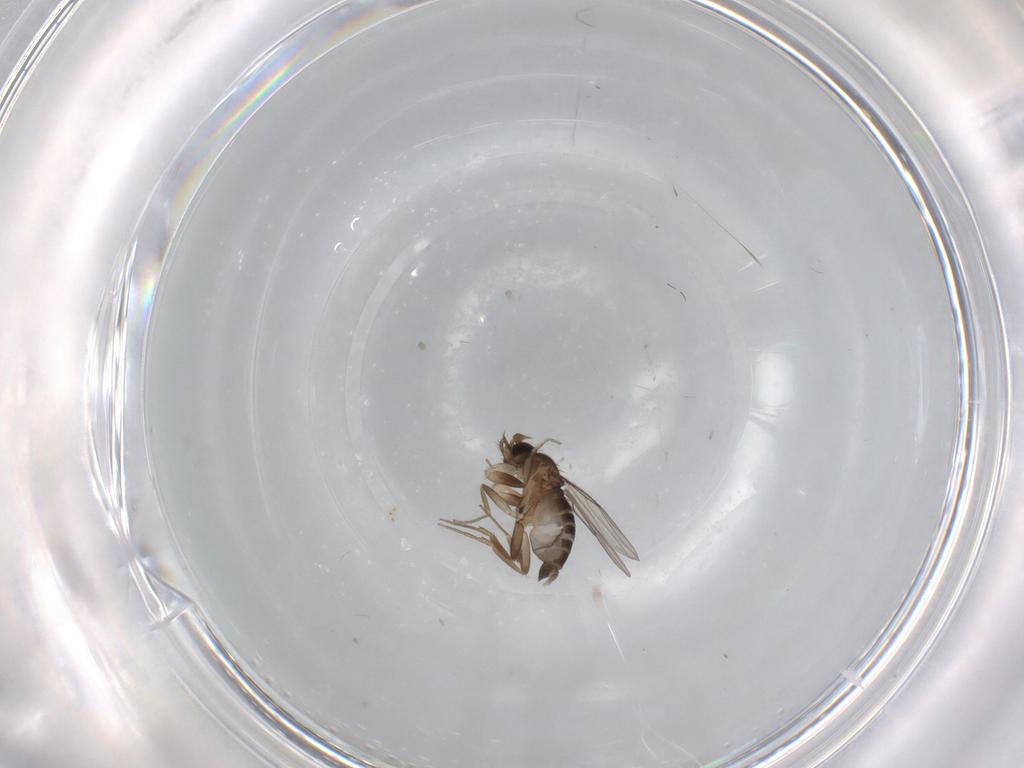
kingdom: Animalia
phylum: Arthropoda
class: Insecta
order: Diptera
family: Phoridae
